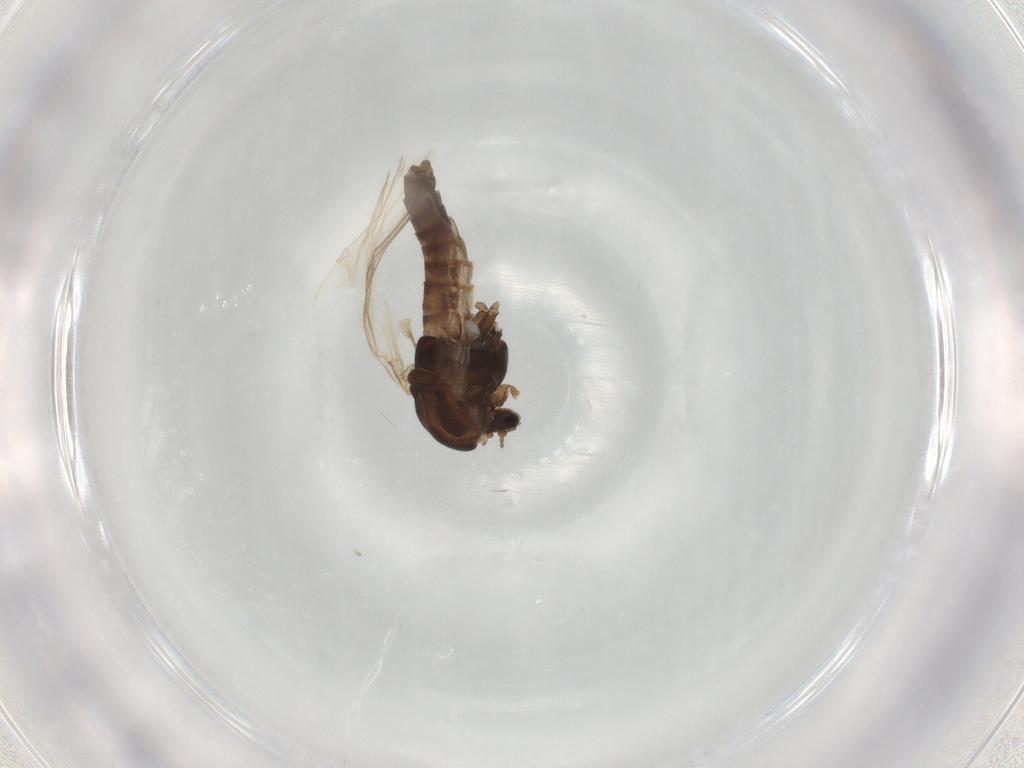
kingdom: Animalia
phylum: Arthropoda
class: Insecta
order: Diptera
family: Chironomidae
